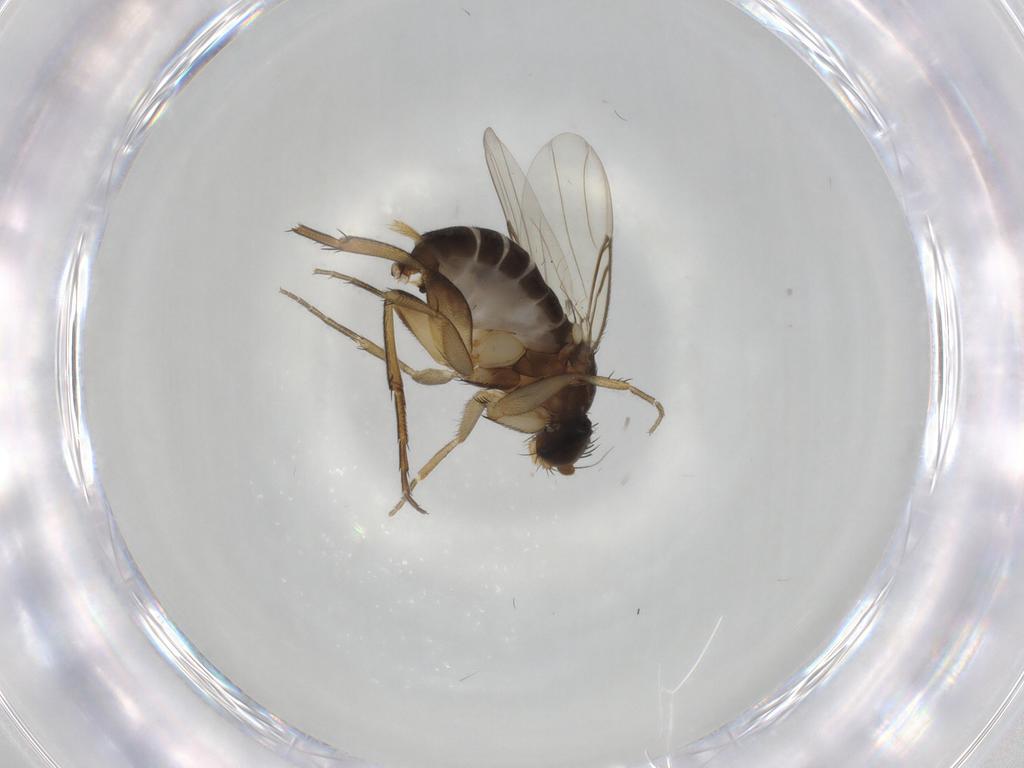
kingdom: Animalia
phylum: Arthropoda
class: Insecta
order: Diptera
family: Phoridae
